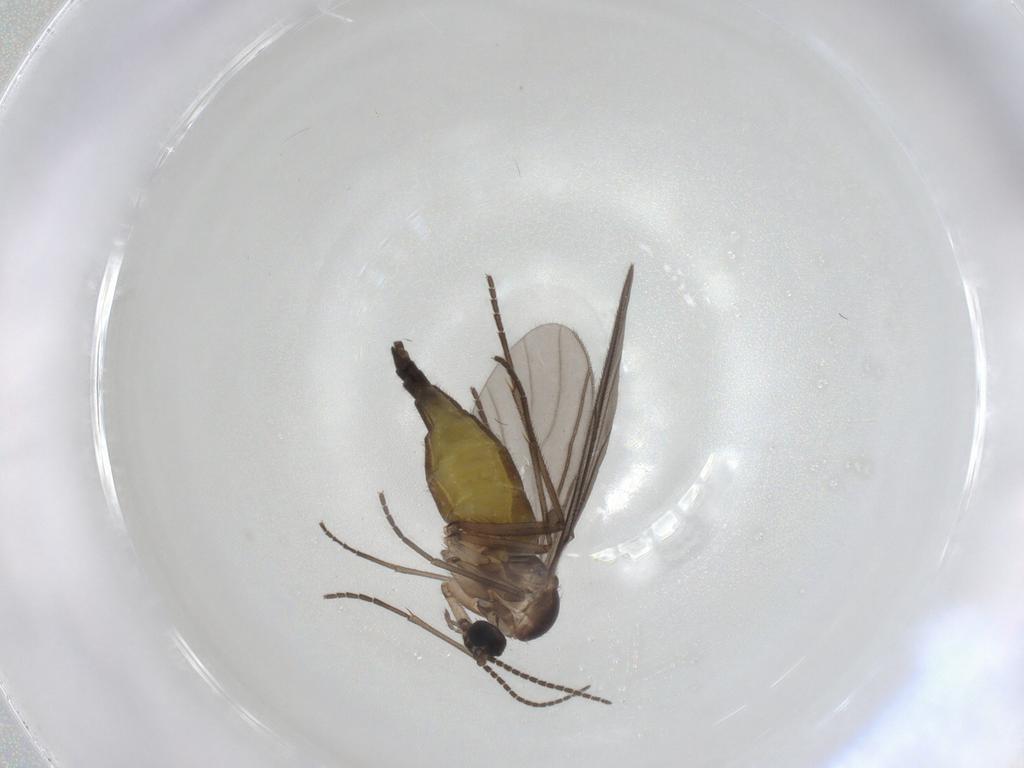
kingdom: Animalia
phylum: Arthropoda
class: Insecta
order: Diptera
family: Sciaridae
